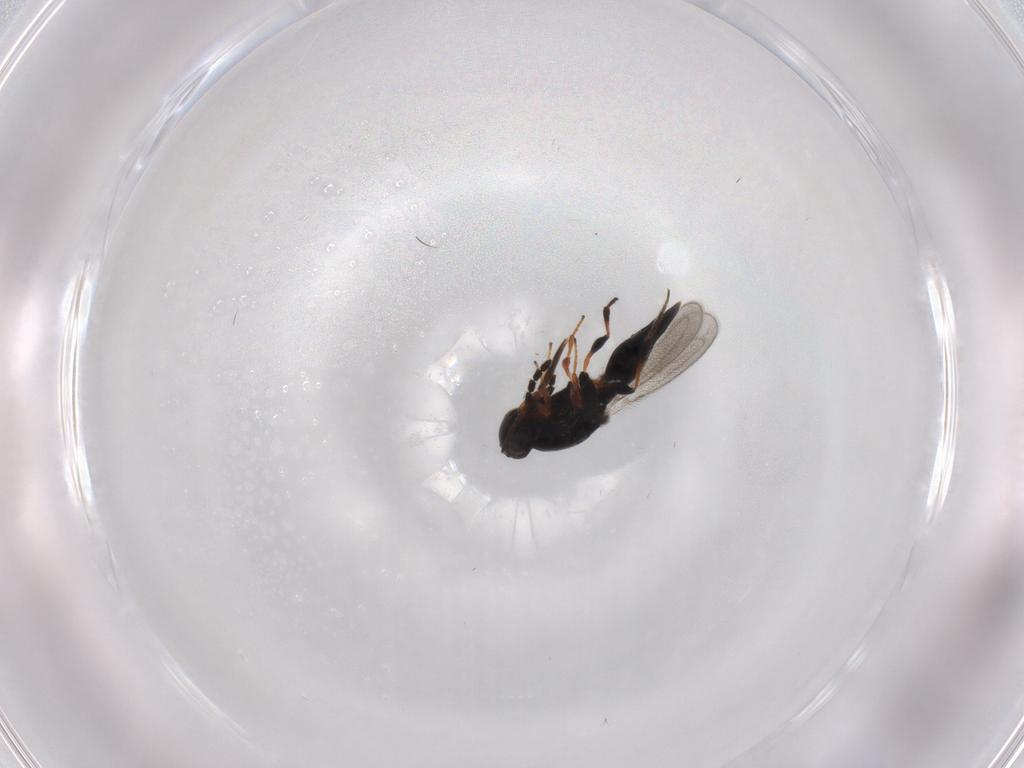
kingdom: Animalia
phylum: Arthropoda
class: Insecta
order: Hymenoptera
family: Platygastridae
